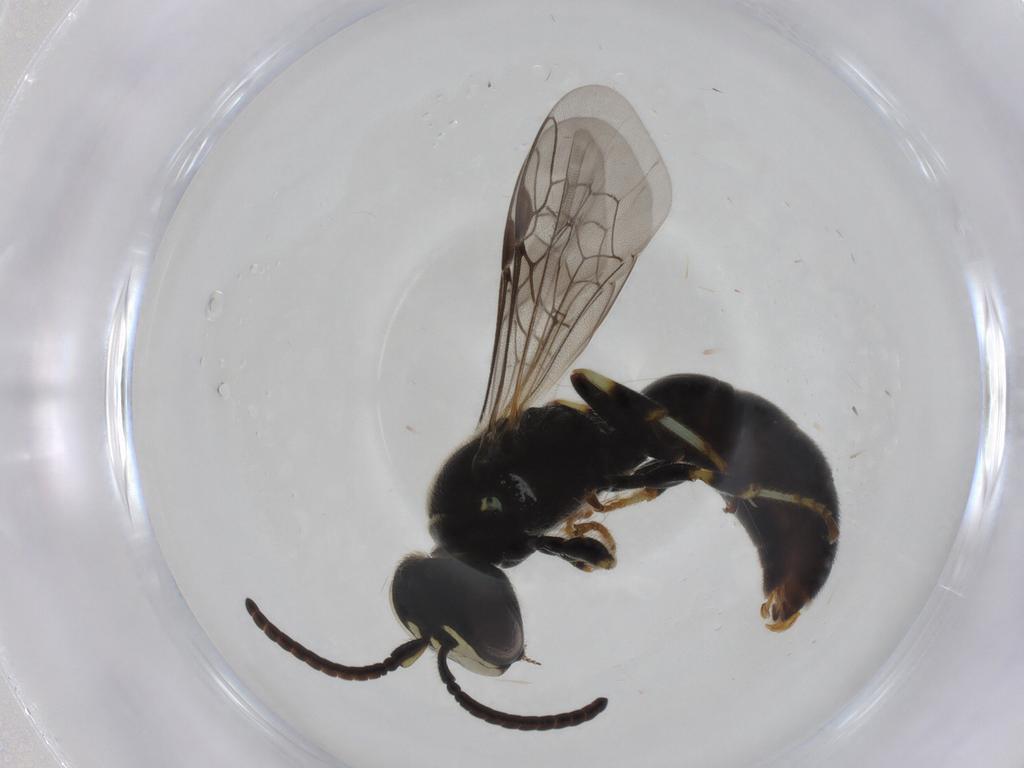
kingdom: Animalia
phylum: Arthropoda
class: Insecta
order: Hymenoptera
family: Colletidae
